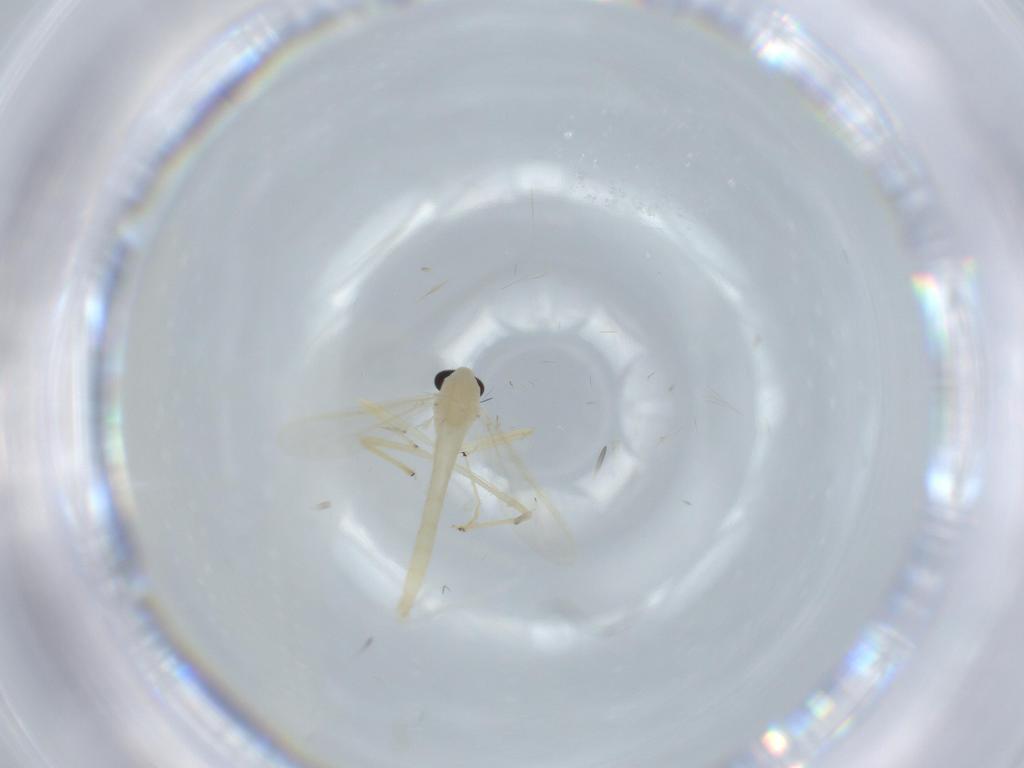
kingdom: Animalia
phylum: Arthropoda
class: Insecta
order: Diptera
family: Chironomidae
